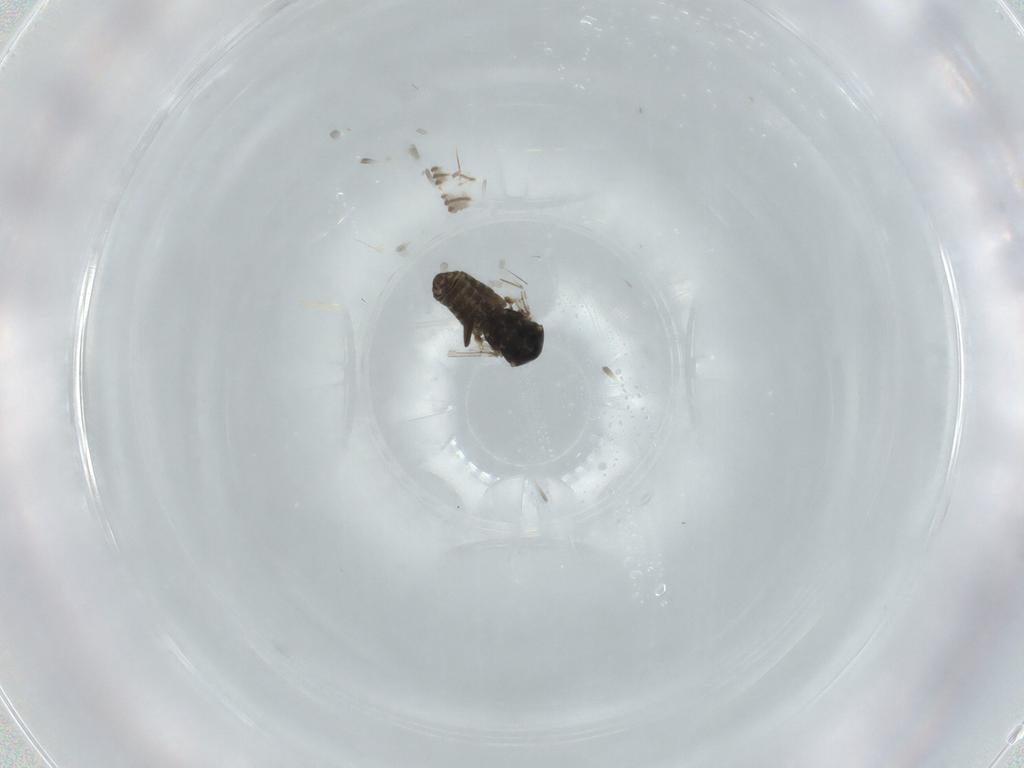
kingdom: Animalia
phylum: Arthropoda
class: Insecta
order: Diptera
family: Ceratopogonidae
